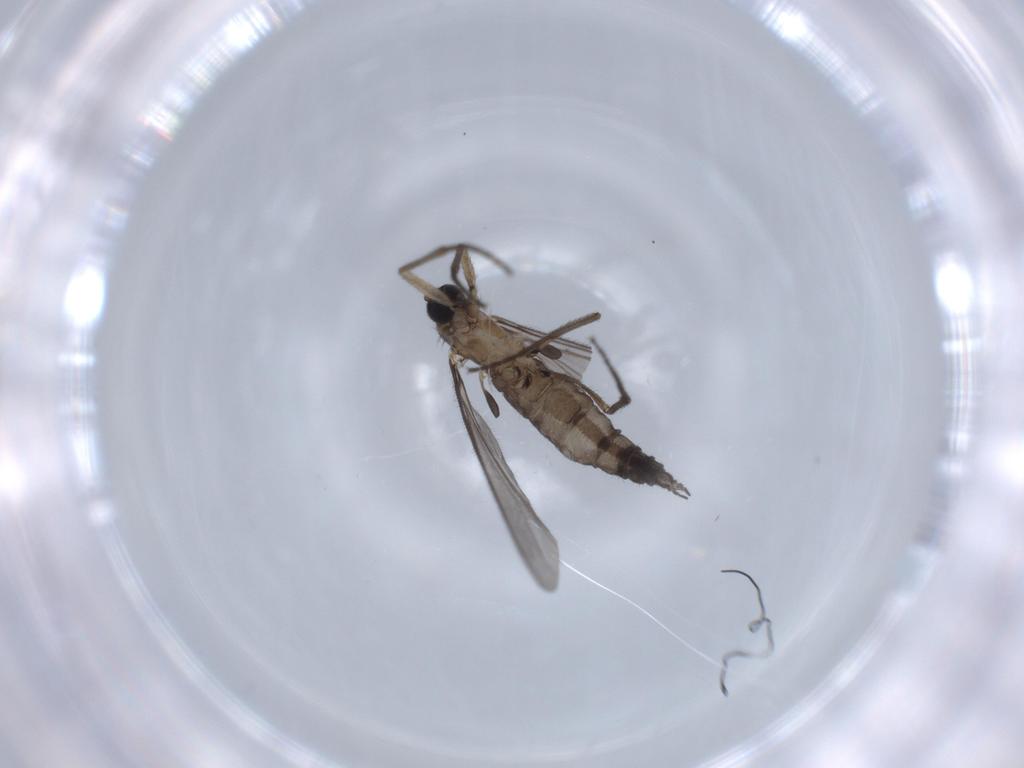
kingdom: Animalia
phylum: Arthropoda
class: Insecta
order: Diptera
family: Sciaridae
